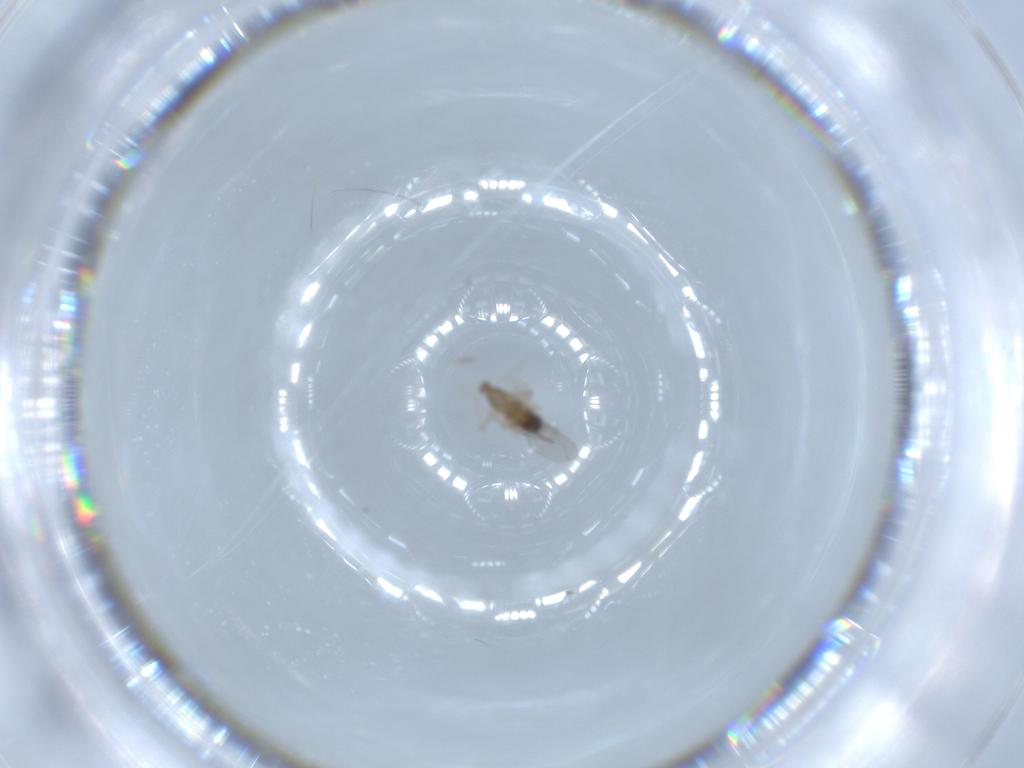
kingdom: Animalia
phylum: Arthropoda
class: Insecta
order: Diptera
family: Cecidomyiidae
